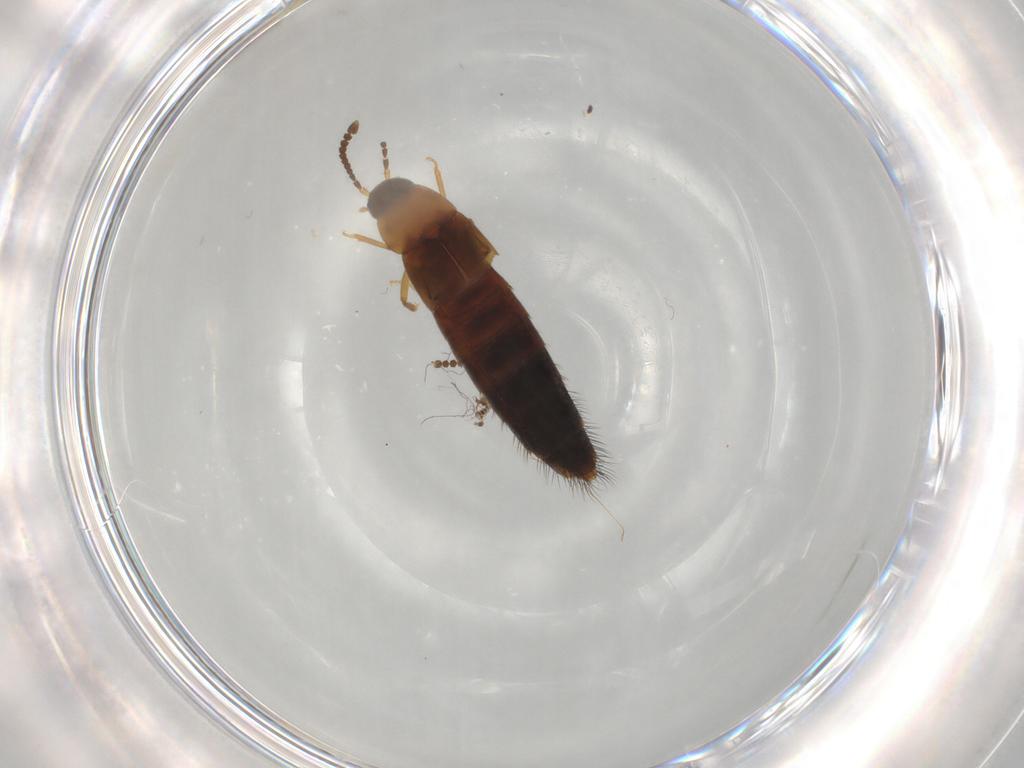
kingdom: Animalia
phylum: Arthropoda
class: Insecta
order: Coleoptera
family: Staphylinidae
